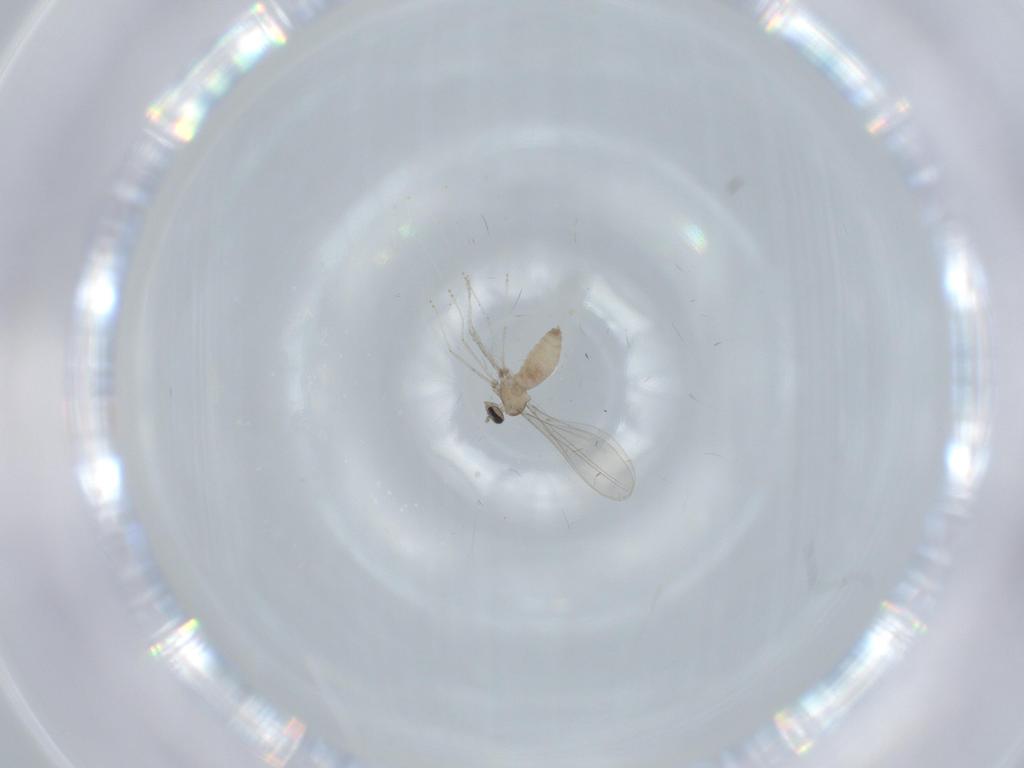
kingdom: Animalia
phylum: Arthropoda
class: Insecta
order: Diptera
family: Cecidomyiidae
